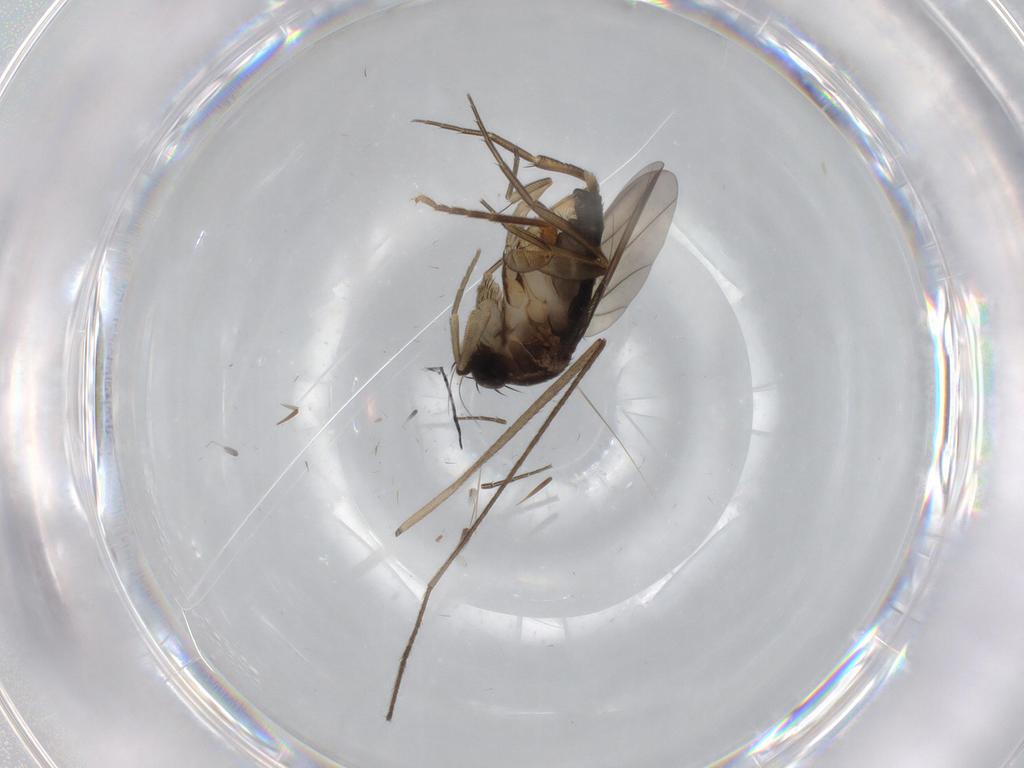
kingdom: Animalia
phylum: Arthropoda
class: Insecta
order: Diptera
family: Phoridae
